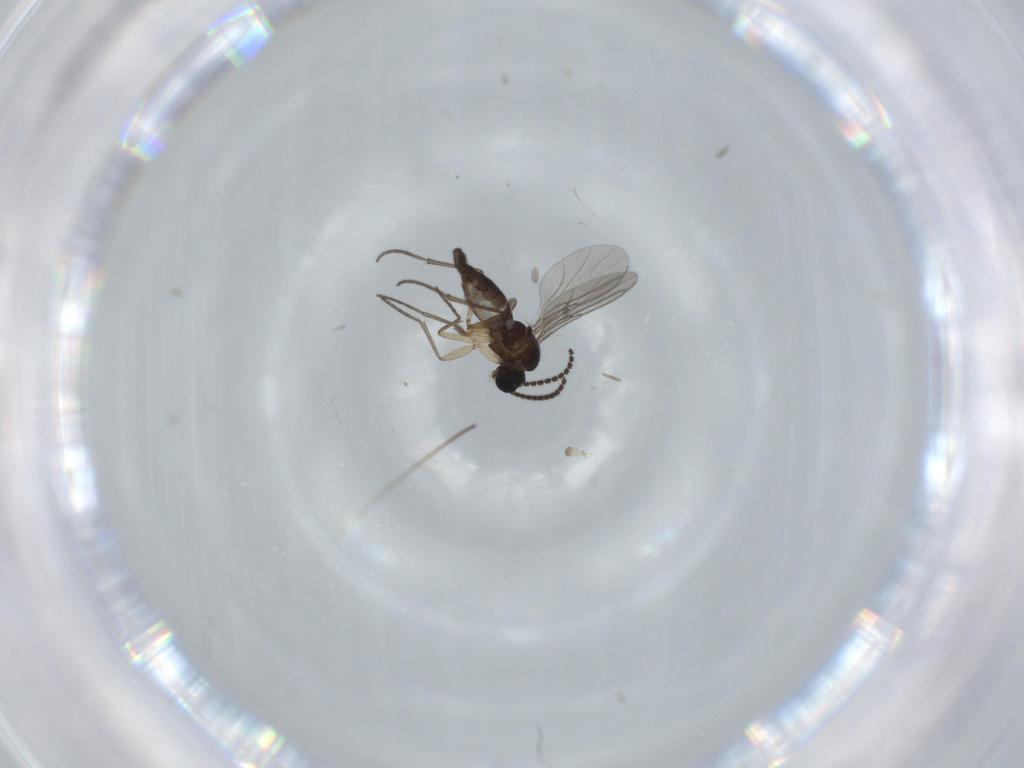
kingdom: Animalia
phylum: Arthropoda
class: Insecta
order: Diptera
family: Sciaridae
